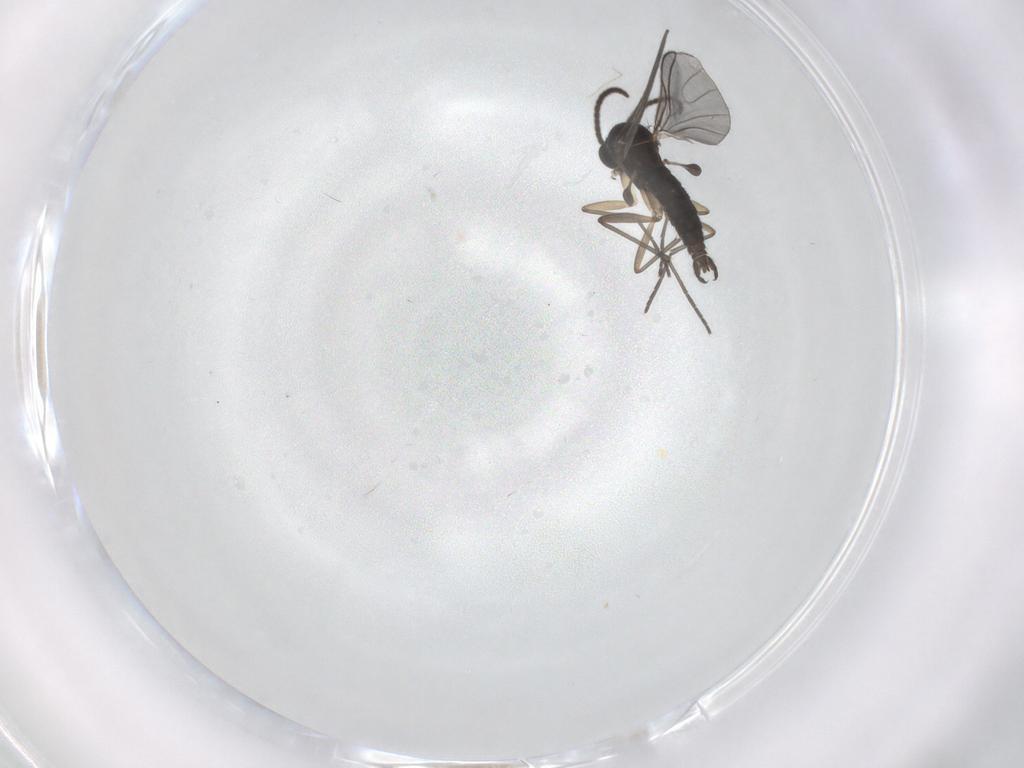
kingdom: Animalia
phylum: Arthropoda
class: Insecta
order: Diptera
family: Sciaridae
